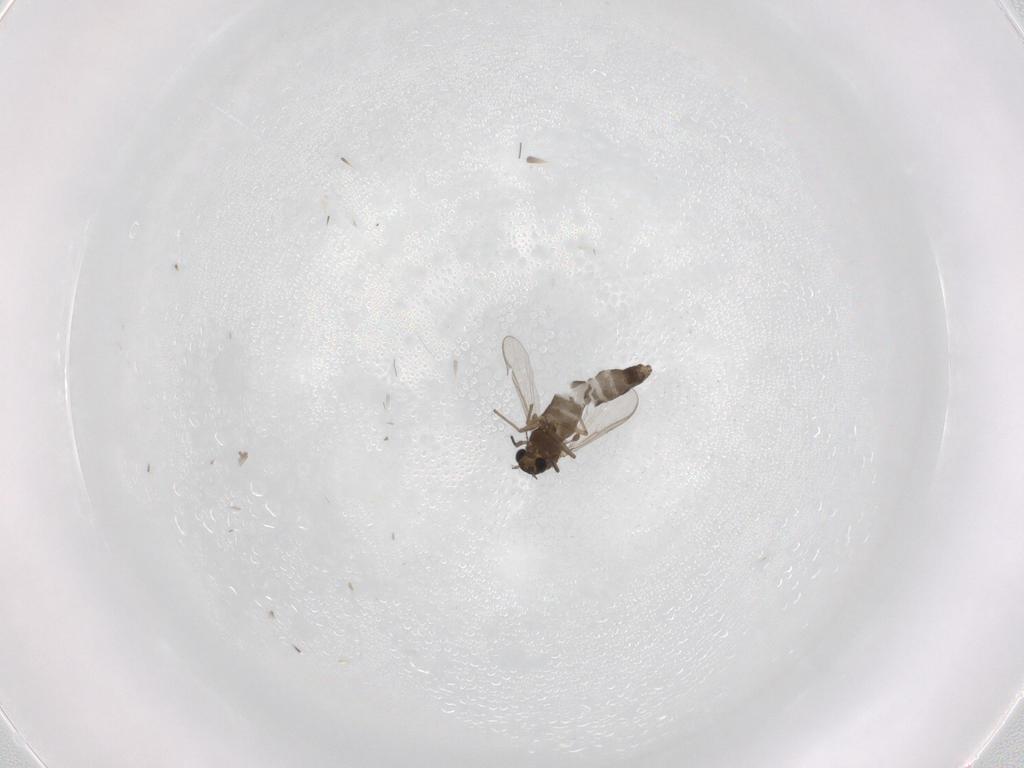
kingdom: Animalia
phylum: Arthropoda
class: Insecta
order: Diptera
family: Chironomidae
